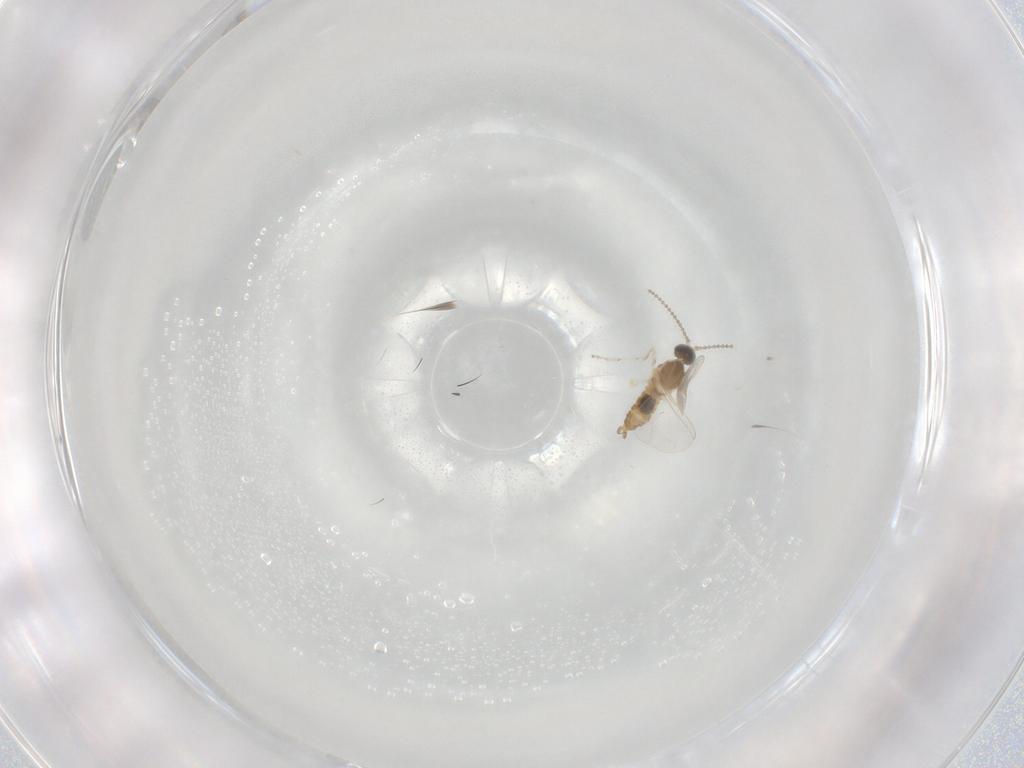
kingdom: Animalia
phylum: Arthropoda
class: Insecta
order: Diptera
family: Cecidomyiidae
